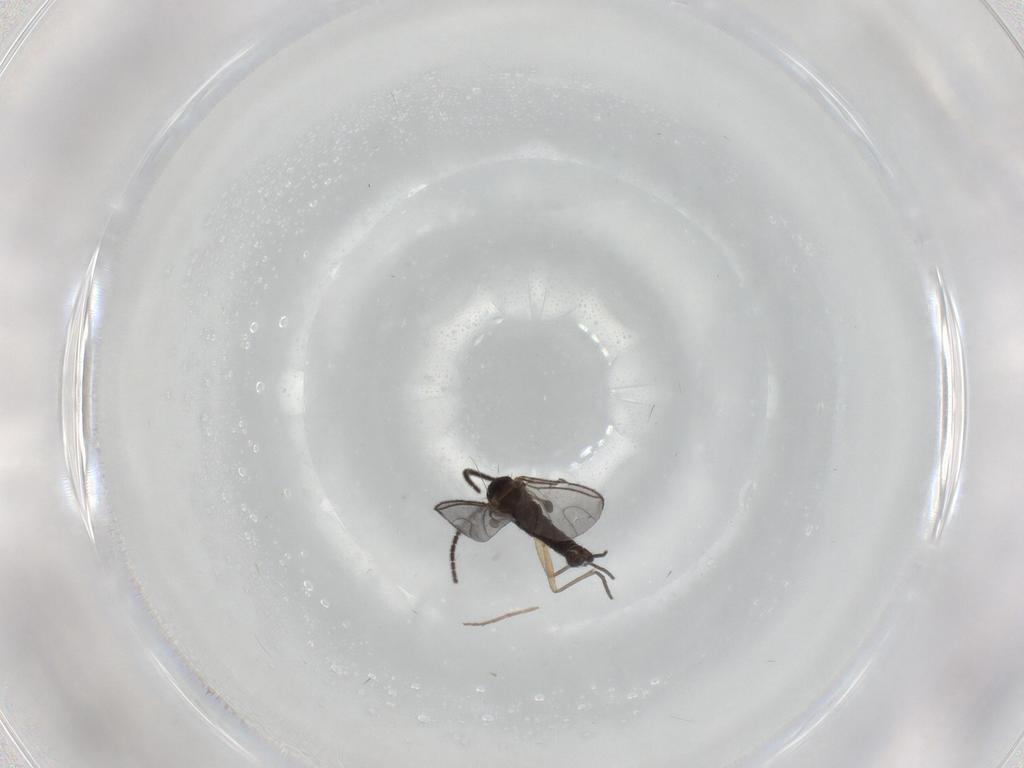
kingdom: Animalia
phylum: Arthropoda
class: Insecta
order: Diptera
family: Sciaridae
